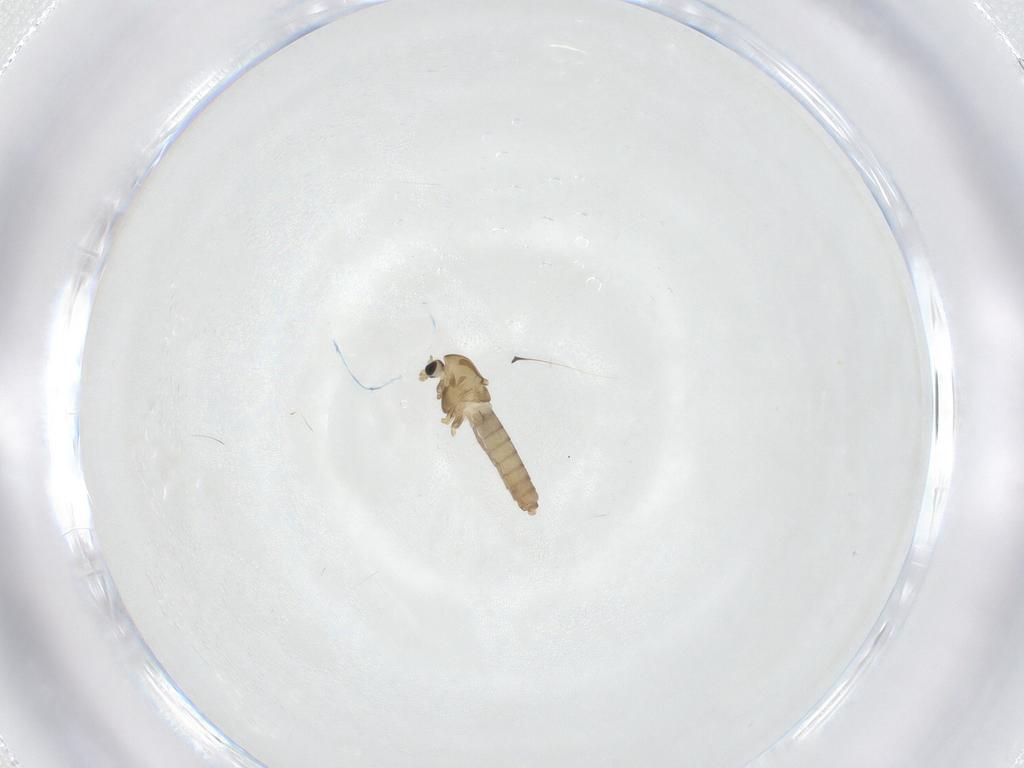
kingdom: Animalia
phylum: Arthropoda
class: Insecta
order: Diptera
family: Chironomidae
